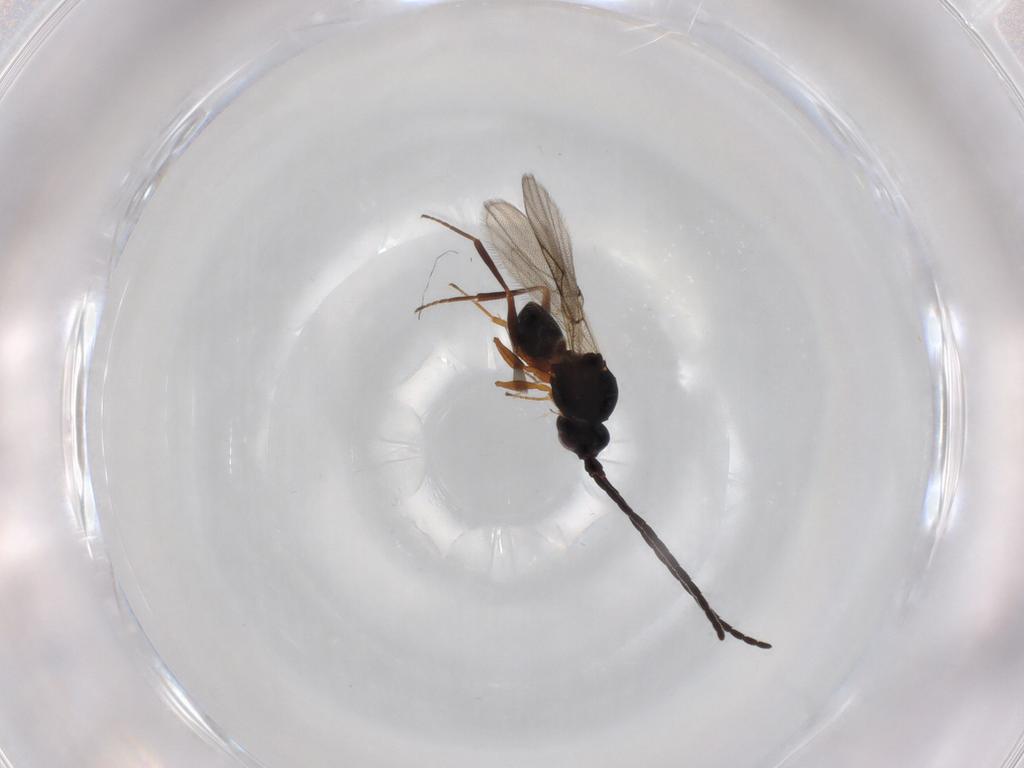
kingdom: Animalia
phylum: Arthropoda
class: Insecta
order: Hymenoptera
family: Figitidae
